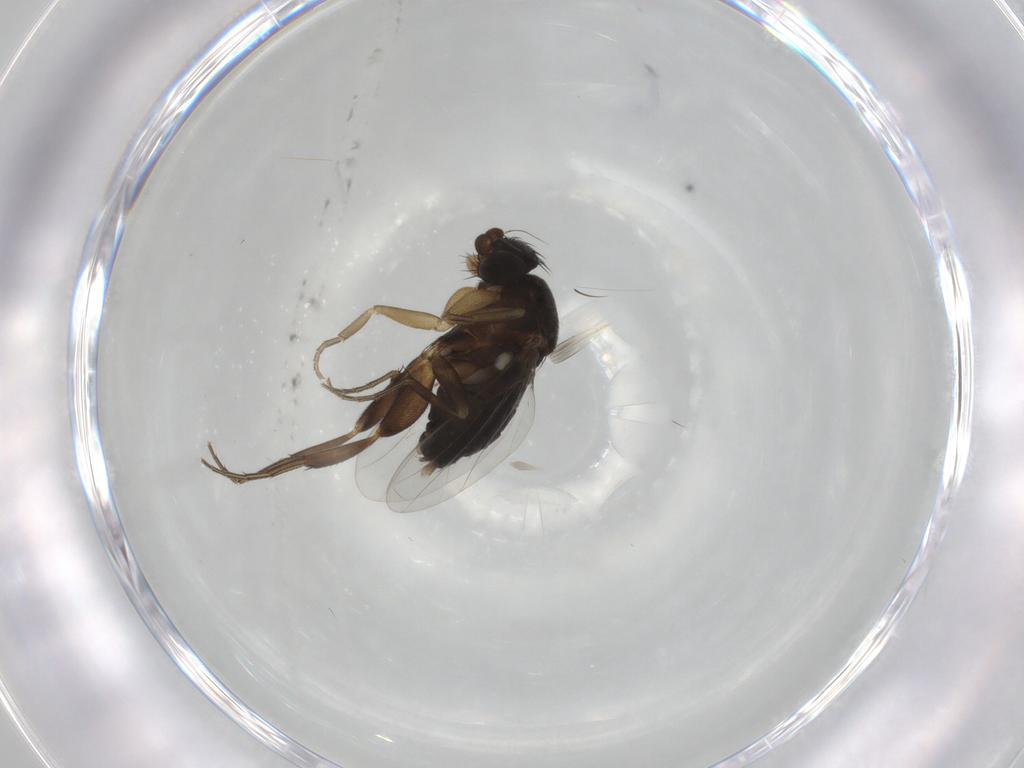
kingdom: Animalia
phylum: Arthropoda
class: Insecta
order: Diptera
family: Phoridae
